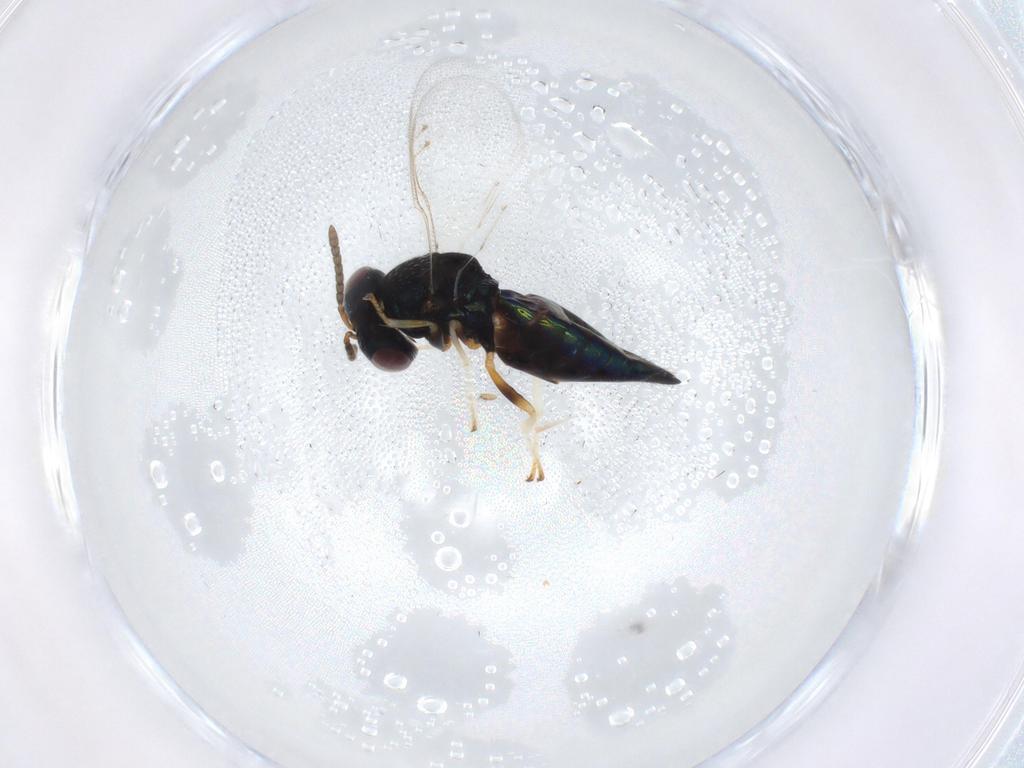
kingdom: Animalia
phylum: Arthropoda
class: Insecta
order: Hymenoptera
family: Platygastridae
